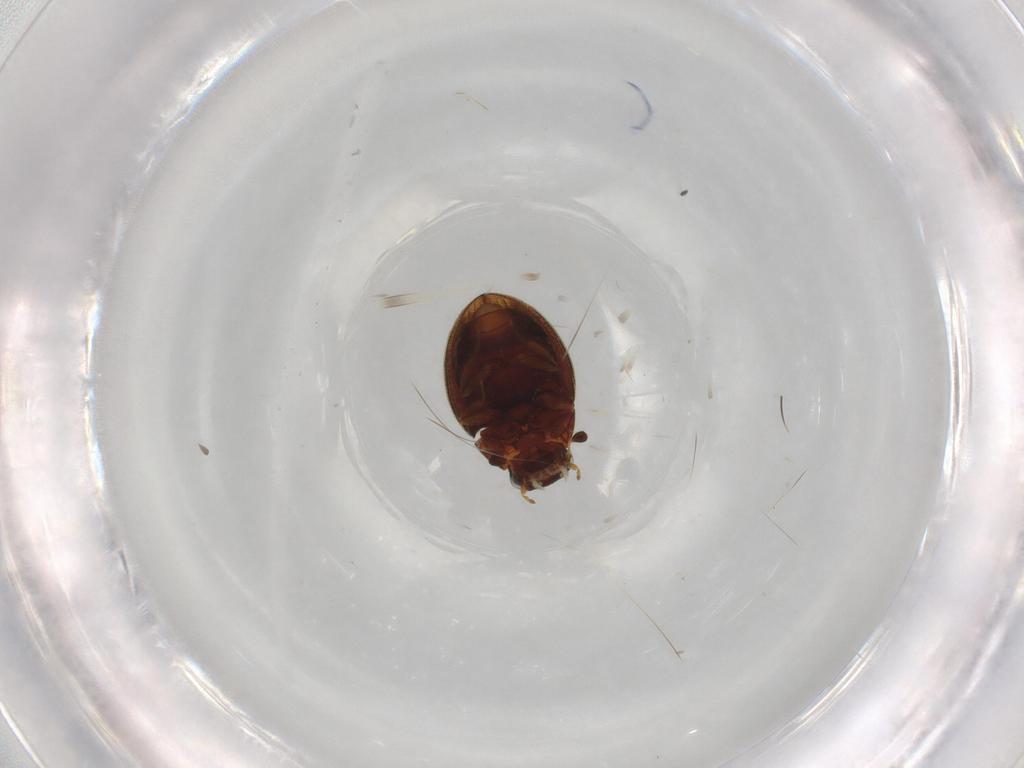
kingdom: Animalia
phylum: Arthropoda
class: Insecta
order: Coleoptera
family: Hydrophilidae
